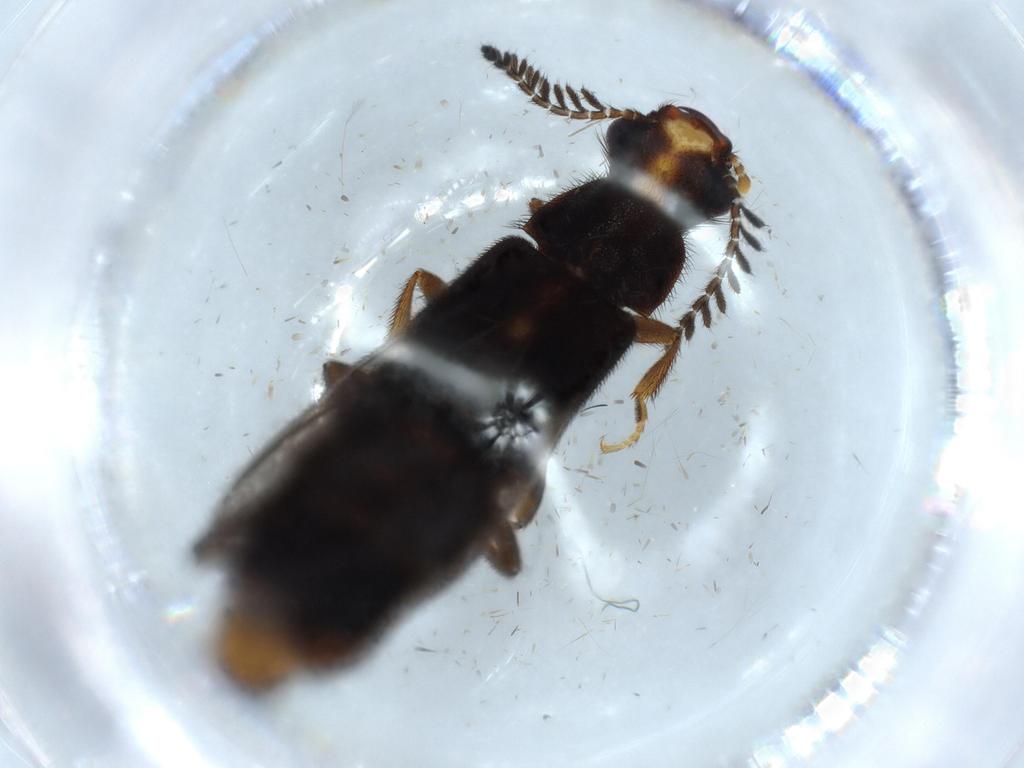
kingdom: Animalia
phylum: Arthropoda
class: Insecta
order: Coleoptera
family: Phengodidae
